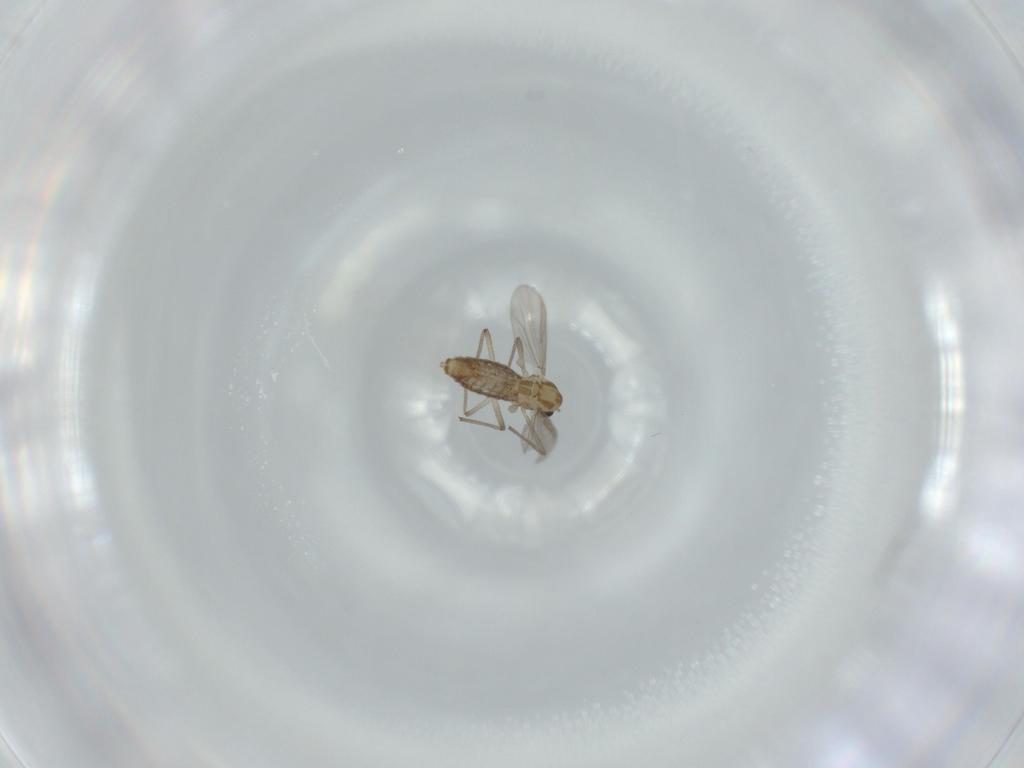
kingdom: Animalia
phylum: Arthropoda
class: Insecta
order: Diptera
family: Chironomidae
